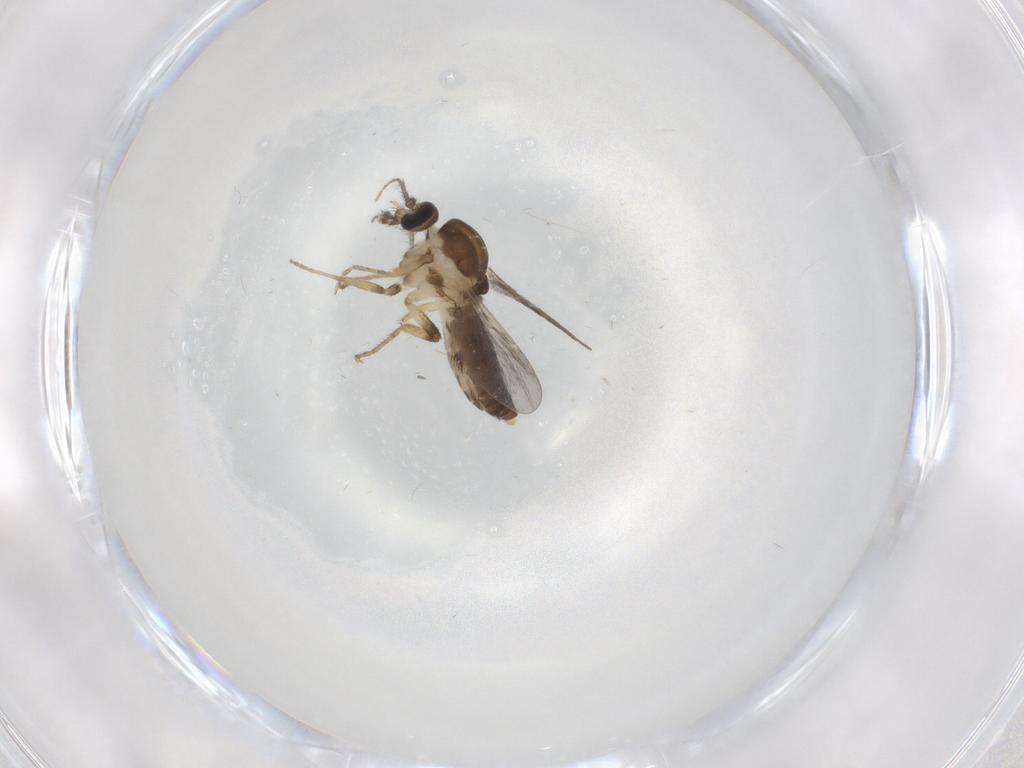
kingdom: Animalia
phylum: Arthropoda
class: Insecta
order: Diptera
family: Ceratopogonidae
